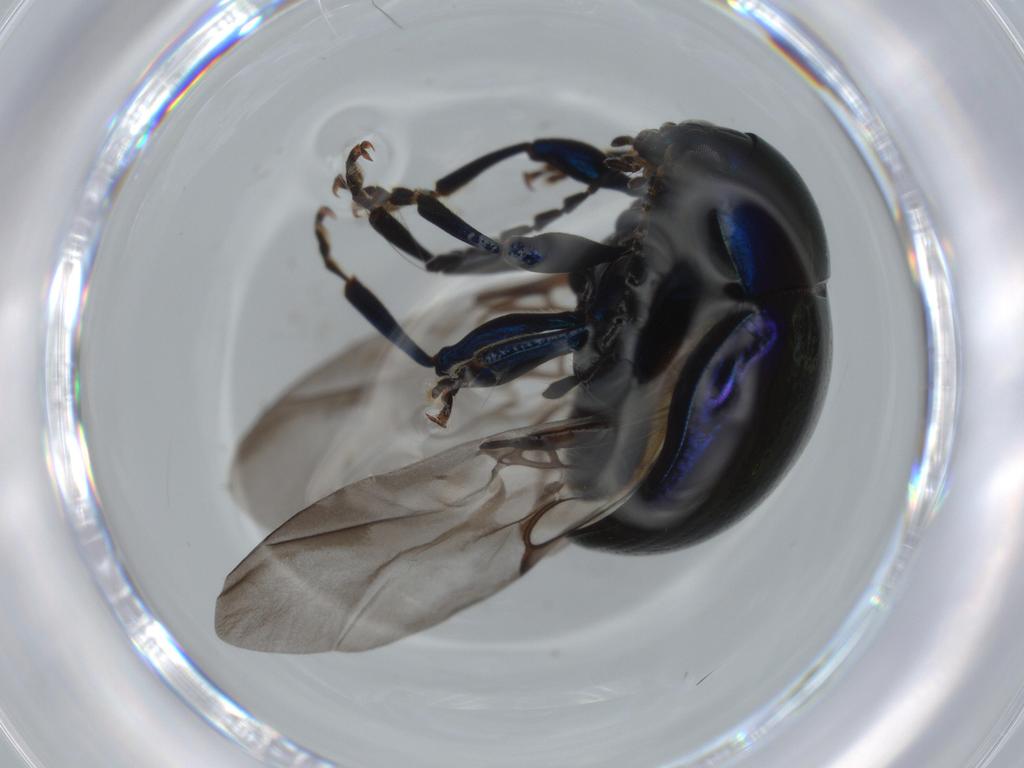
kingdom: Animalia
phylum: Arthropoda
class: Insecta
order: Coleoptera
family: Chrysomelidae
